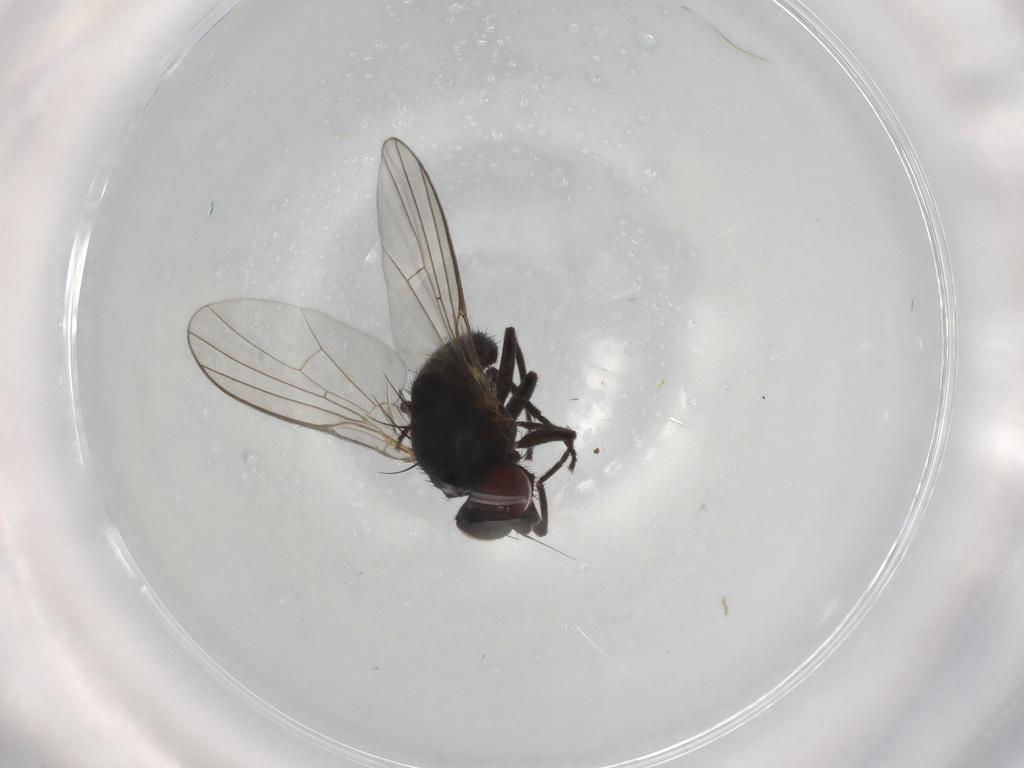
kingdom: Animalia
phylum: Arthropoda
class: Insecta
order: Diptera
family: Agromyzidae
